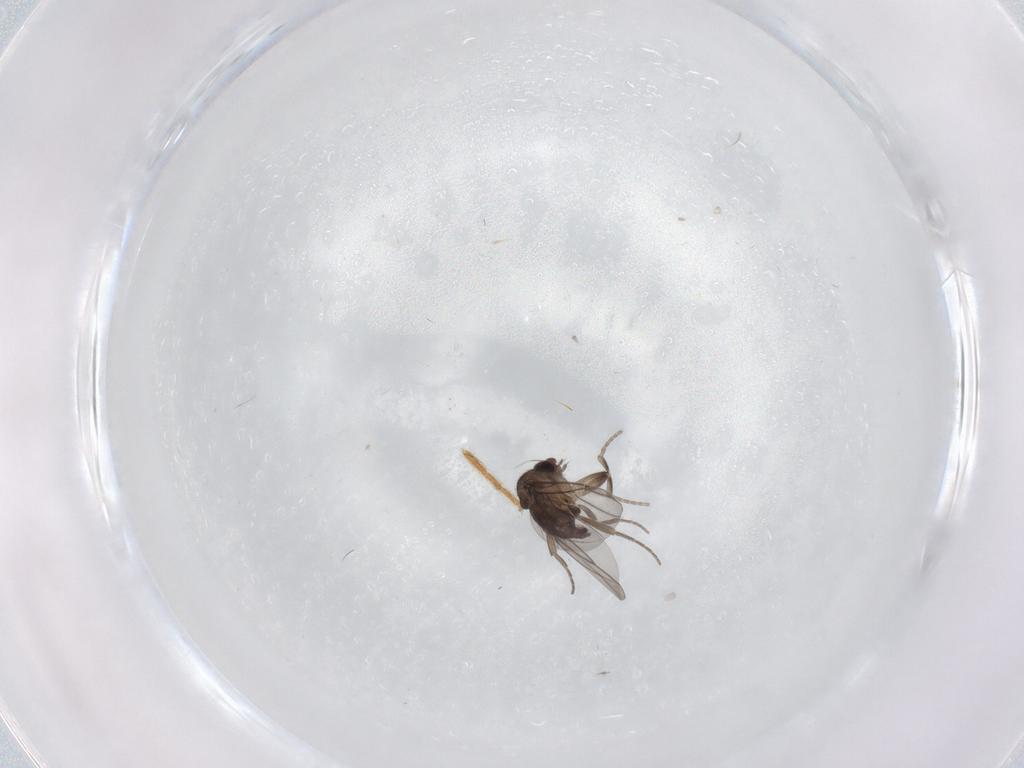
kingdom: Animalia
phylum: Arthropoda
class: Insecta
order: Diptera
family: Phoridae
